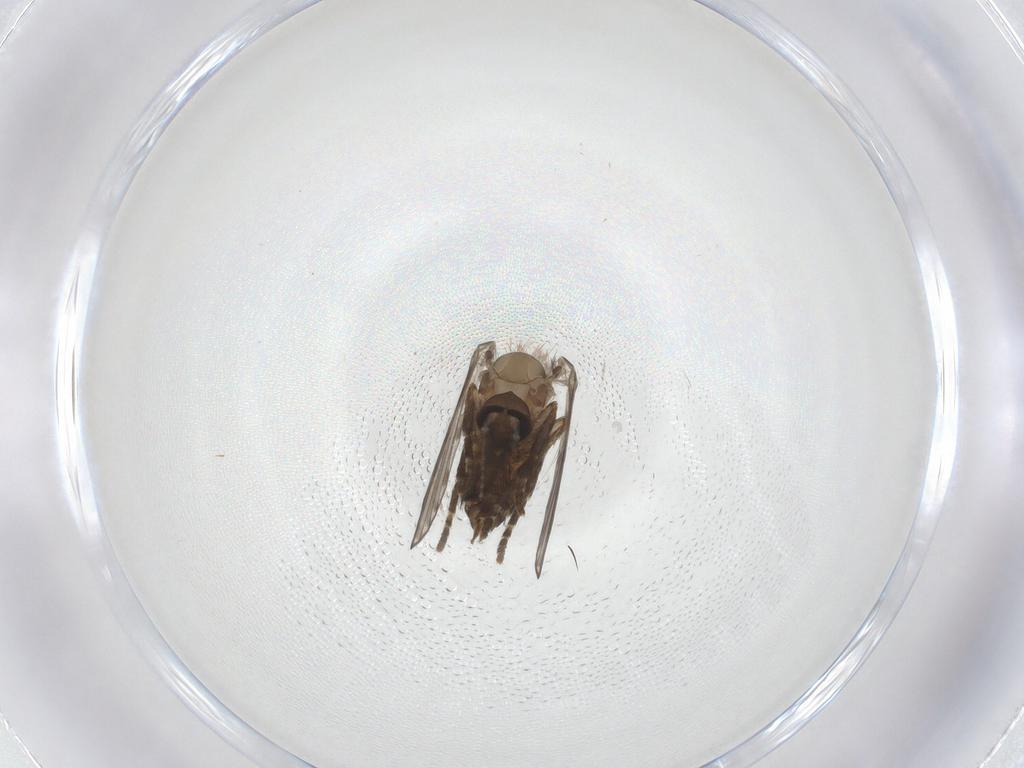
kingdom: Animalia
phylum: Arthropoda
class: Insecta
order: Diptera
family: Psychodidae
